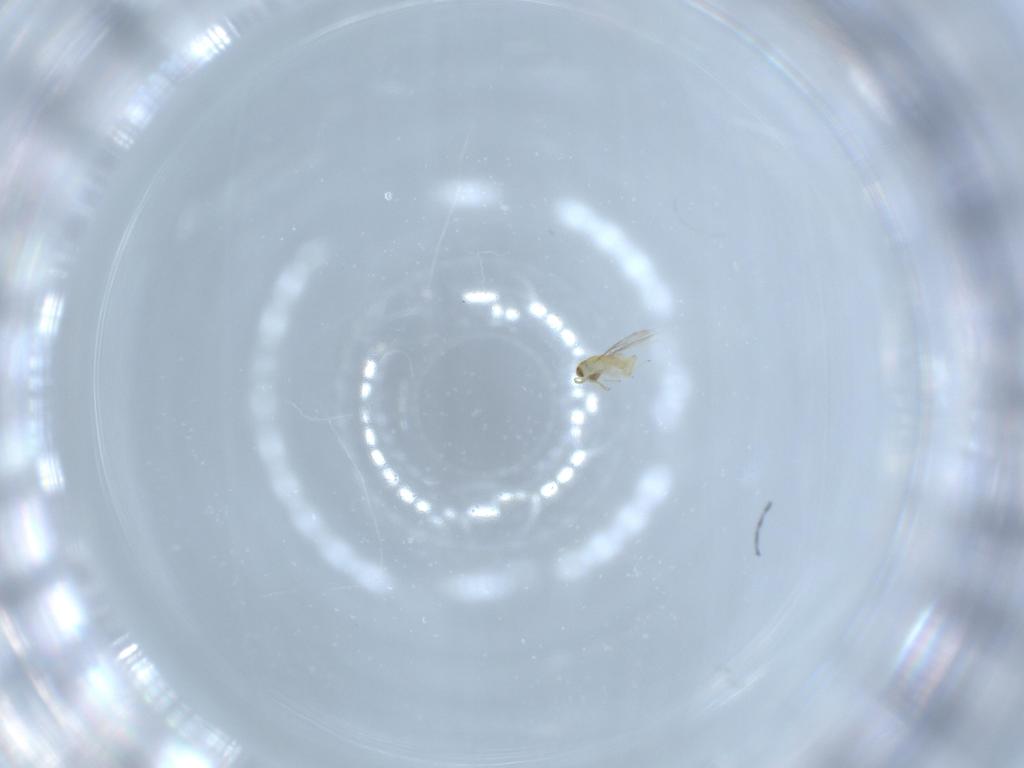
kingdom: Animalia
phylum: Arthropoda
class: Insecta
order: Hymenoptera
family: Aphelinidae
